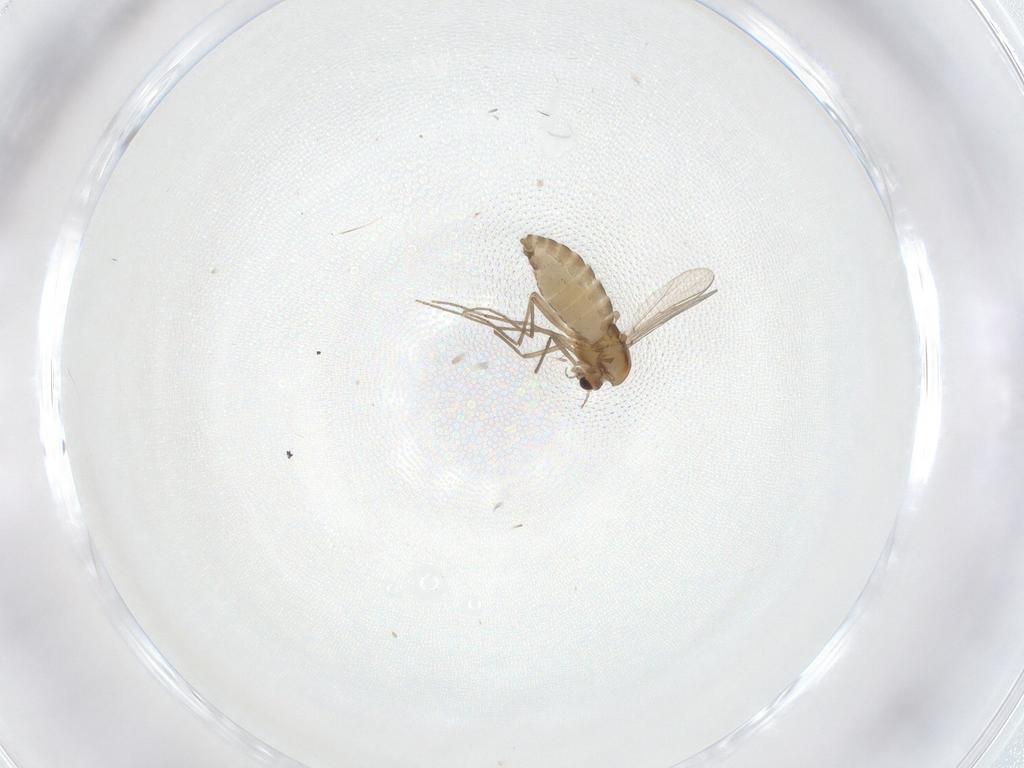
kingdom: Animalia
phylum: Arthropoda
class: Insecta
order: Diptera
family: Chironomidae
